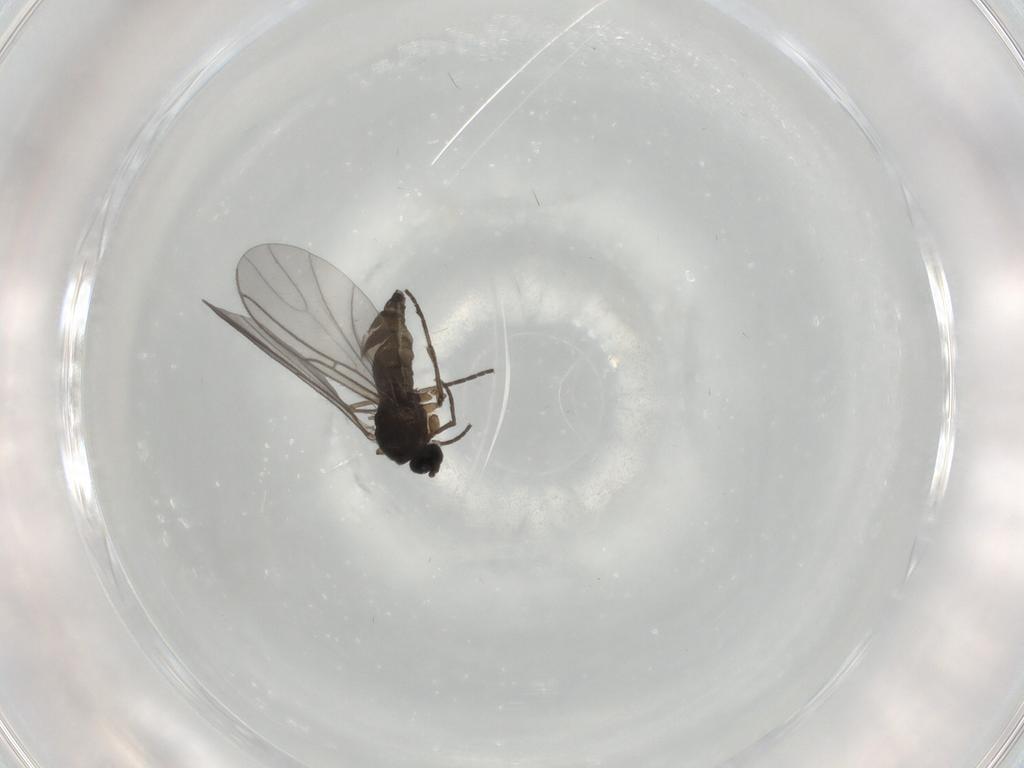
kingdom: Animalia
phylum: Arthropoda
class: Insecta
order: Diptera
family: Sciaridae
